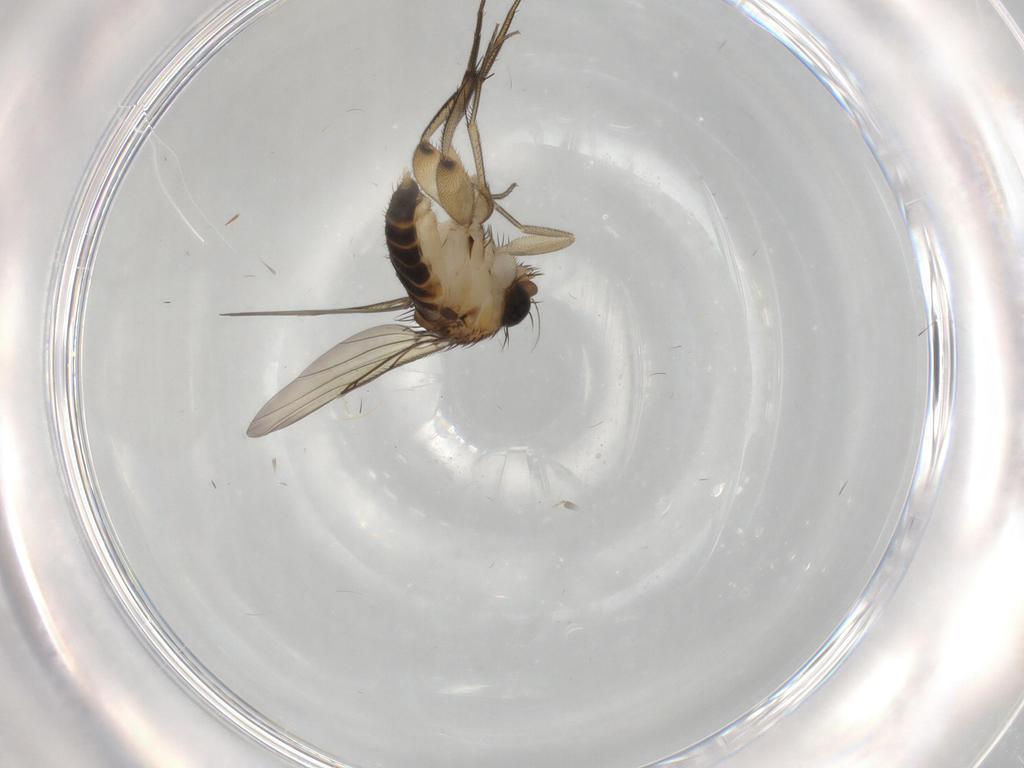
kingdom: Animalia
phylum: Arthropoda
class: Insecta
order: Diptera
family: Phoridae
